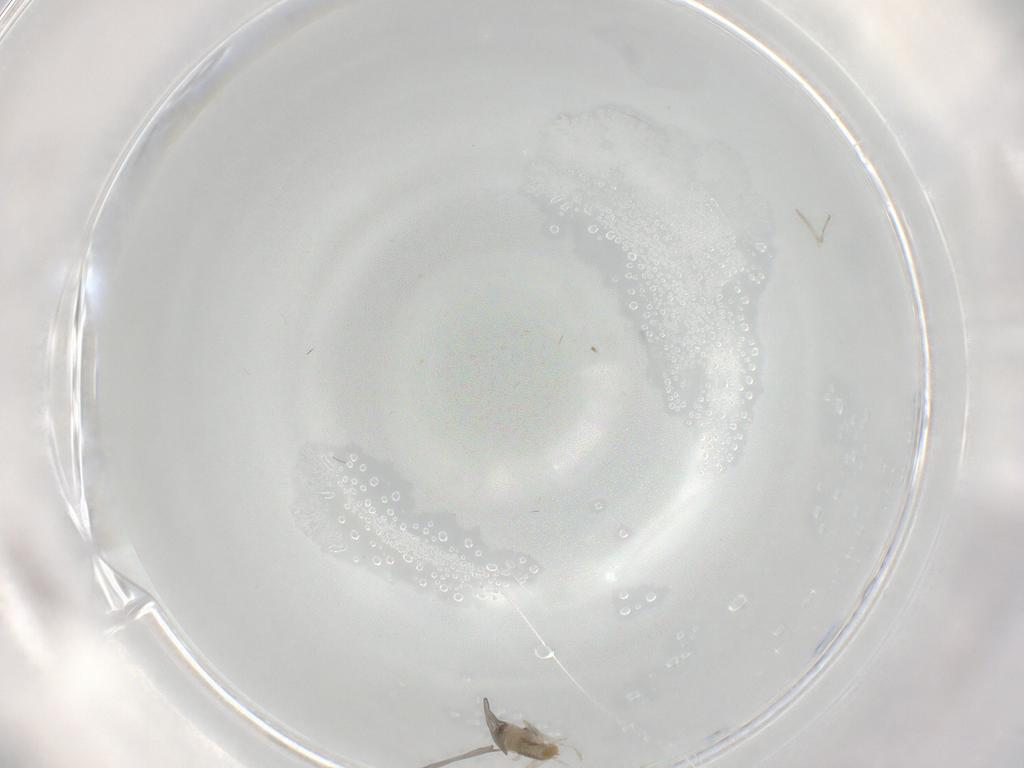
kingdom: Animalia
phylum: Arthropoda
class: Insecta
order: Diptera
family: Cecidomyiidae
